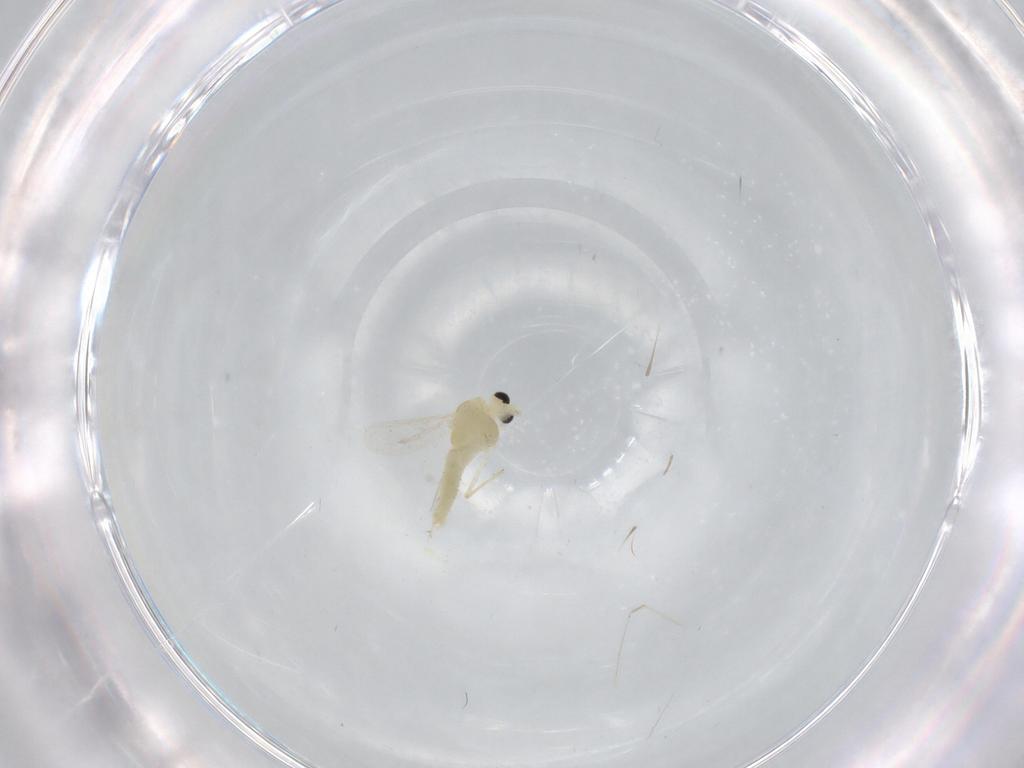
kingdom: Animalia
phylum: Arthropoda
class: Insecta
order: Diptera
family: Chironomidae
